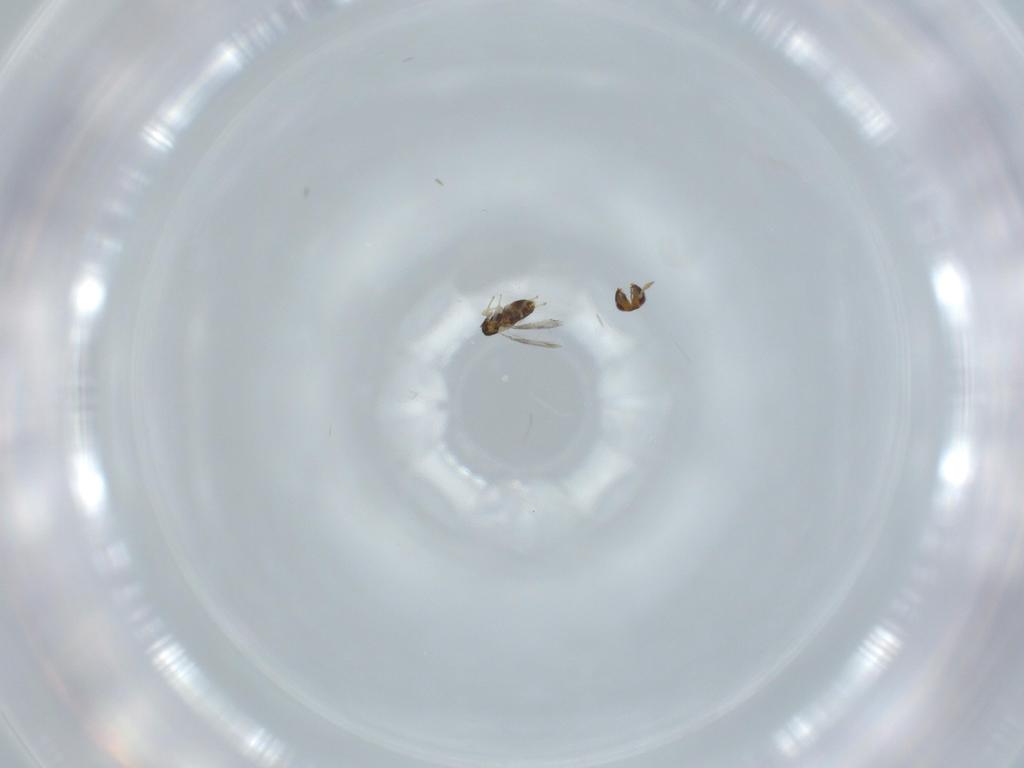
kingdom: Animalia
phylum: Arthropoda
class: Insecta
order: Hymenoptera
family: Aphelinidae
